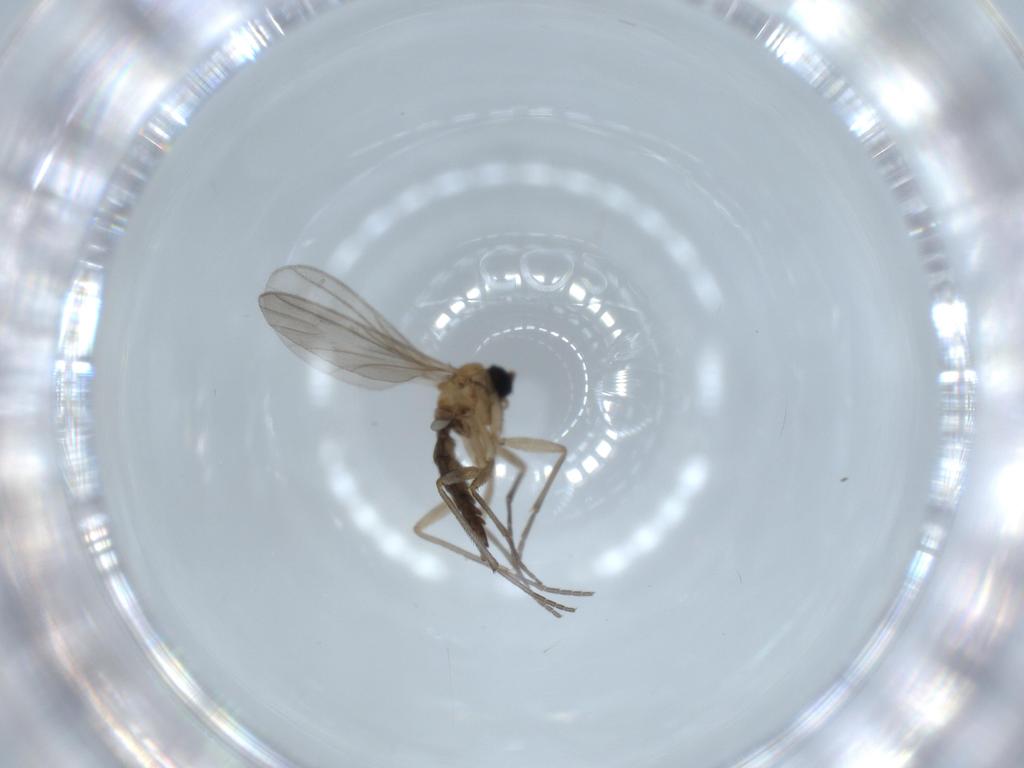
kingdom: Animalia
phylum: Arthropoda
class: Insecta
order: Diptera
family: Sciaridae
